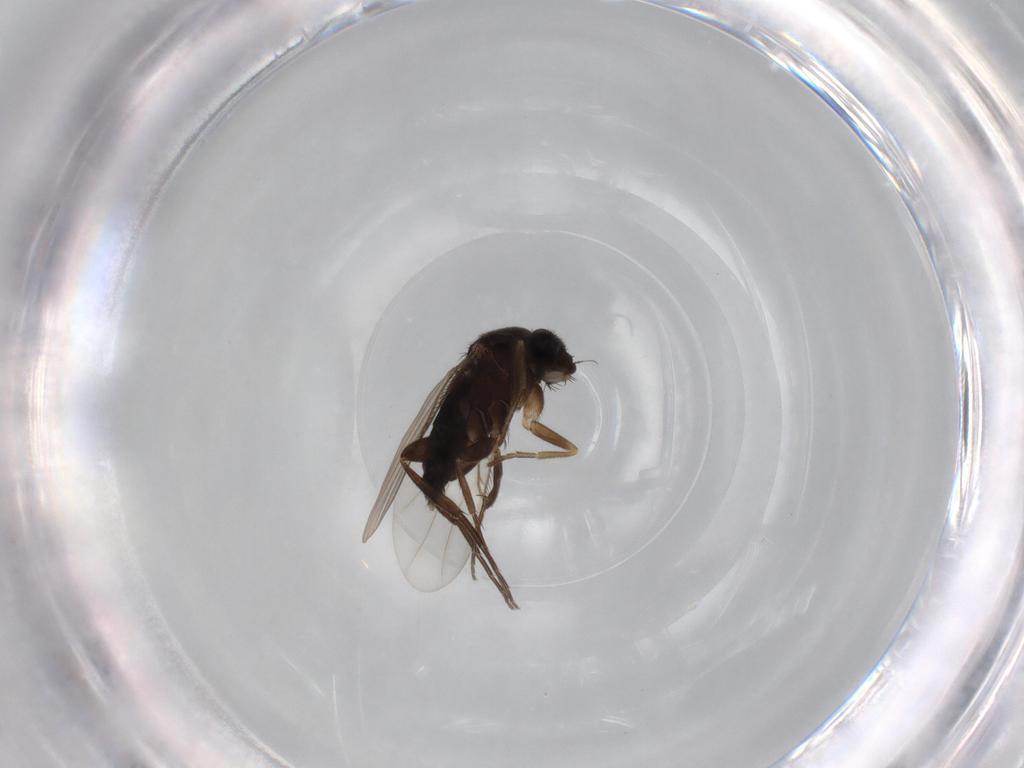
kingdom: Animalia
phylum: Arthropoda
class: Insecta
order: Diptera
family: Phoridae
